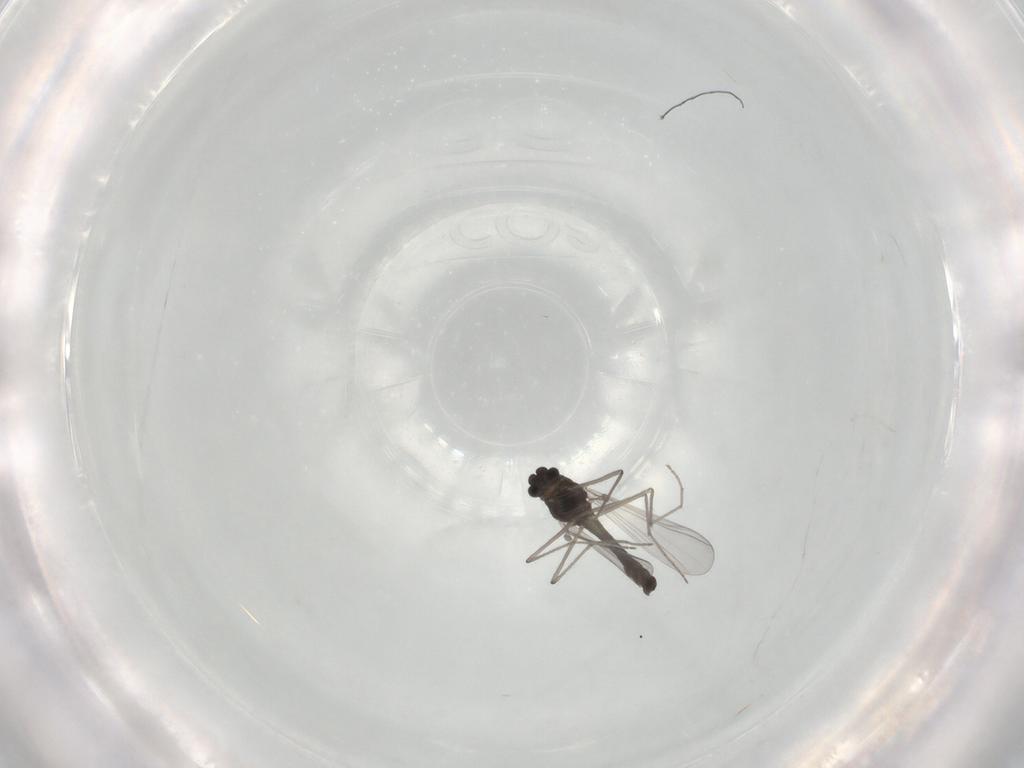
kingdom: Animalia
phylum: Arthropoda
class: Insecta
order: Diptera
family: Chironomidae
